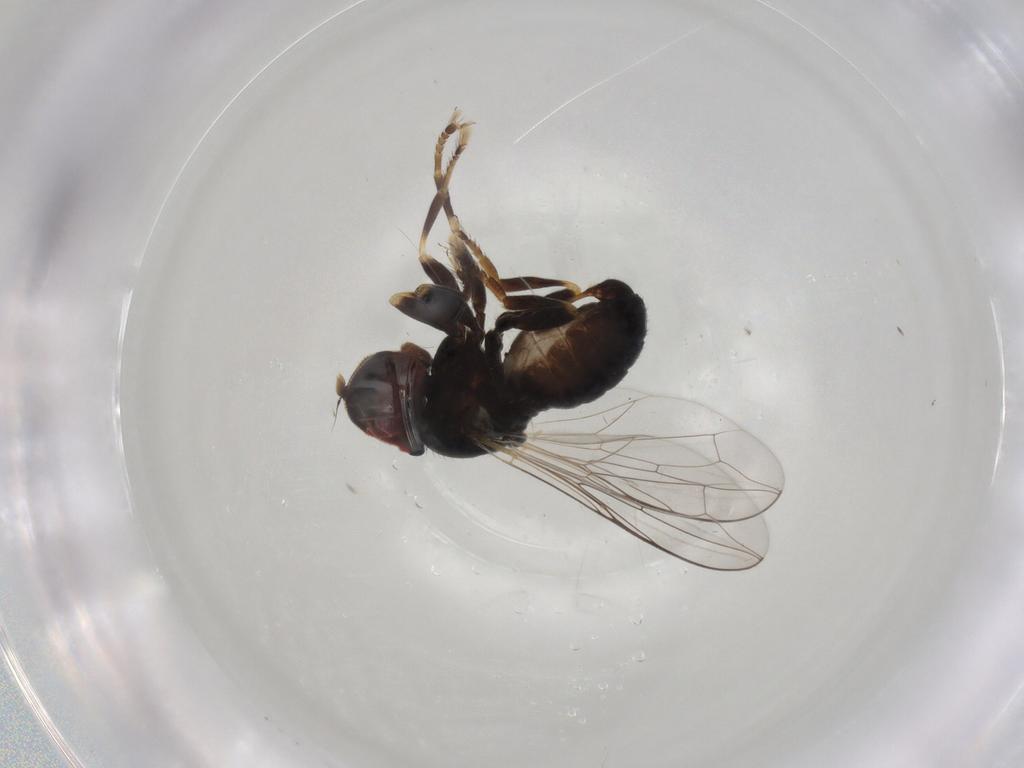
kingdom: Animalia
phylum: Arthropoda
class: Insecta
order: Diptera
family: Pipunculidae
